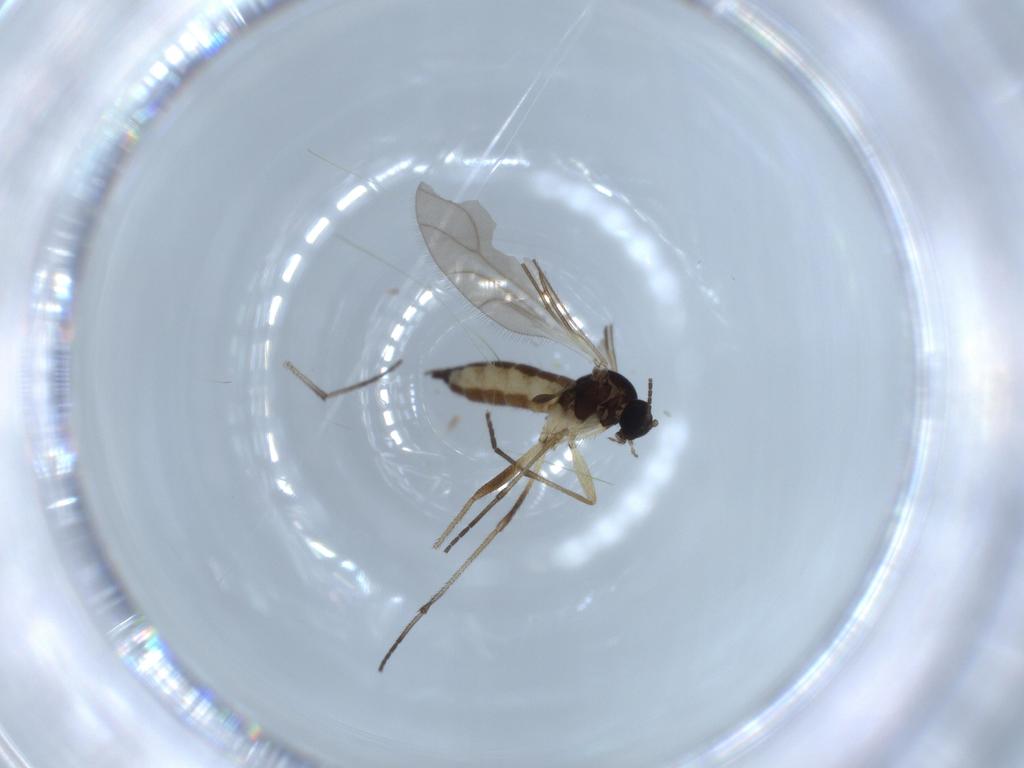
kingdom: Animalia
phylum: Arthropoda
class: Insecta
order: Diptera
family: Sciaridae
